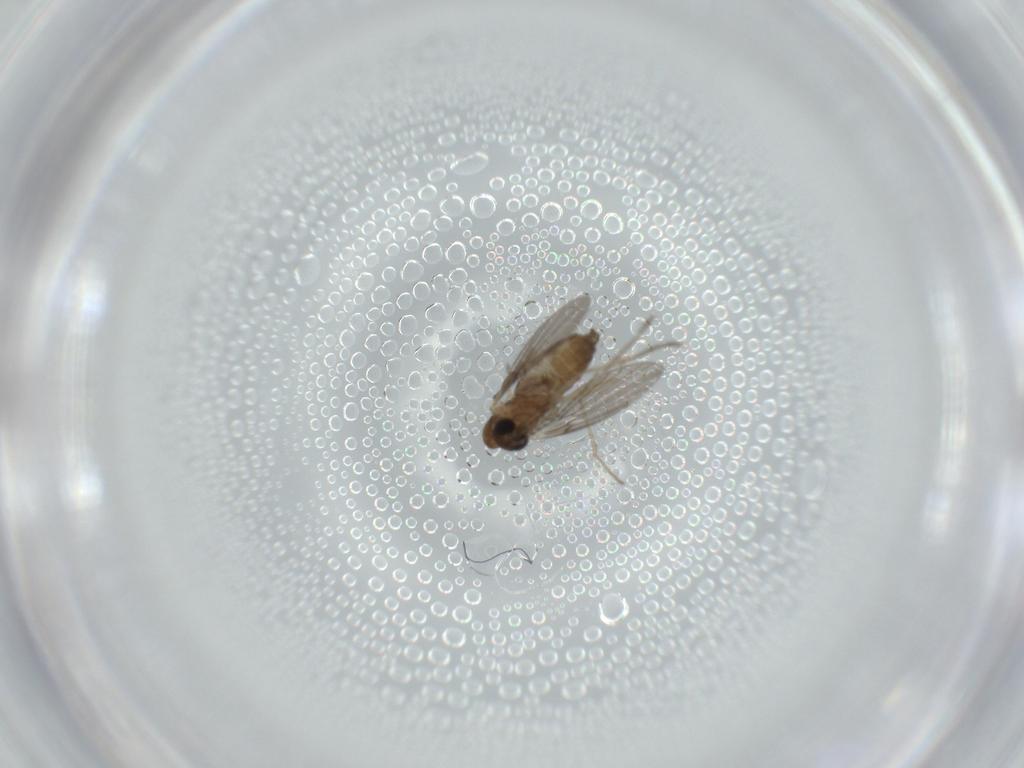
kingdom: Animalia
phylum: Arthropoda
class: Insecta
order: Diptera
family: Psychodidae
